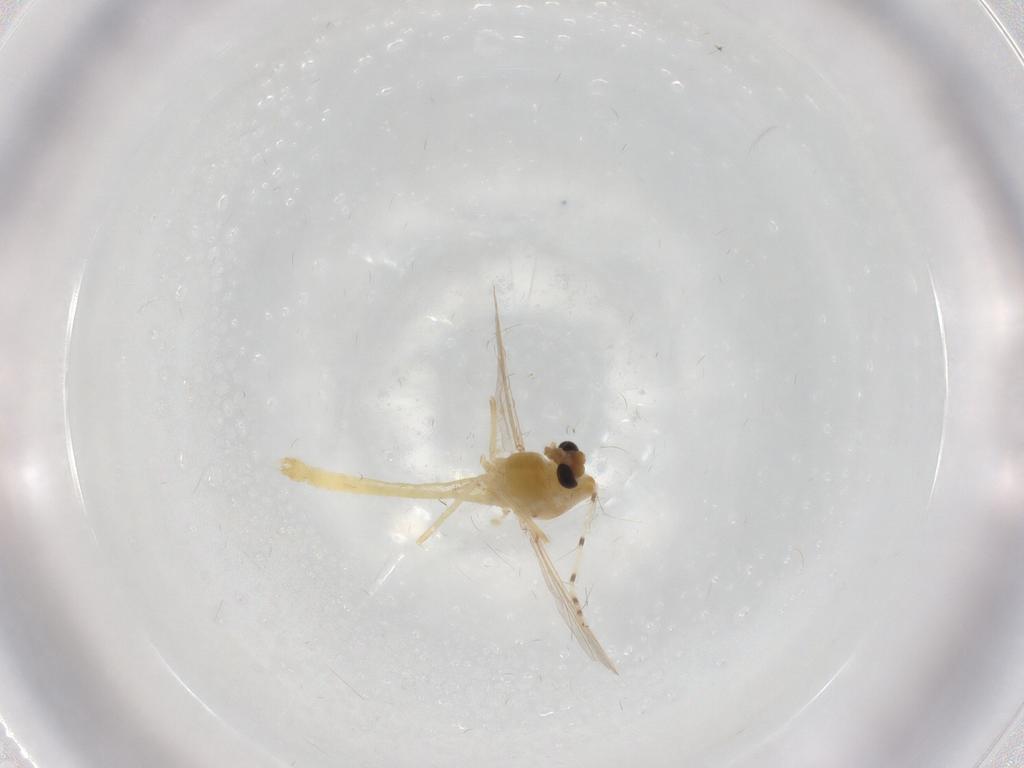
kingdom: Animalia
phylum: Arthropoda
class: Insecta
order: Diptera
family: Chironomidae
